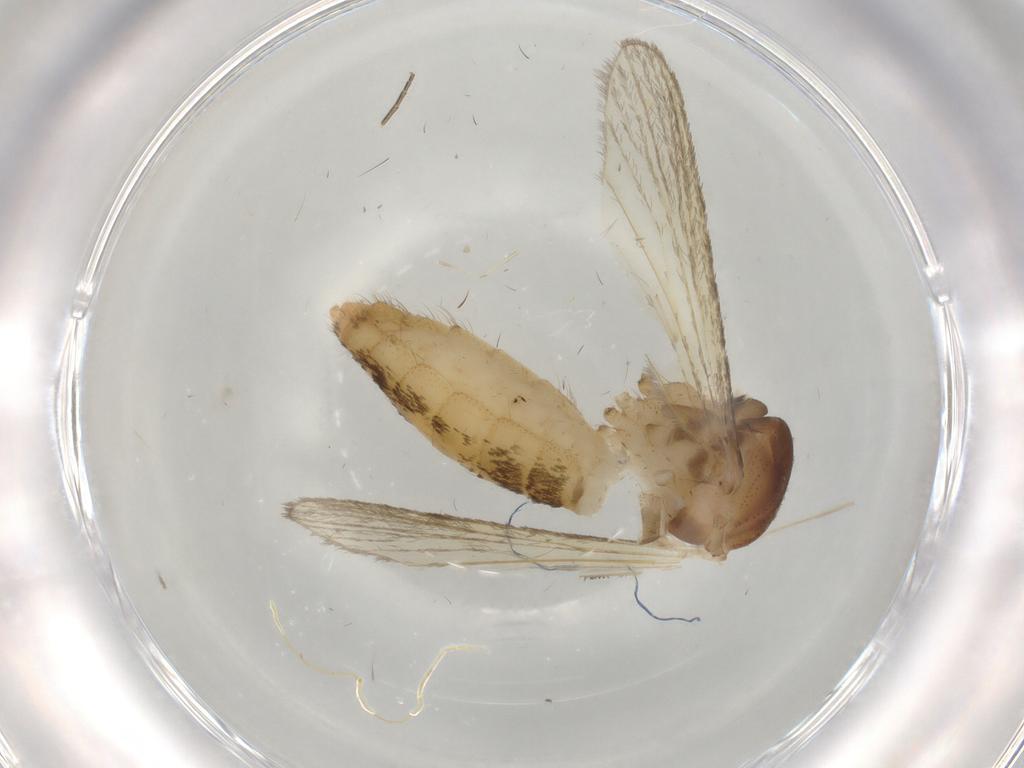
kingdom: Animalia
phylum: Arthropoda
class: Insecta
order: Diptera
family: Culicidae
